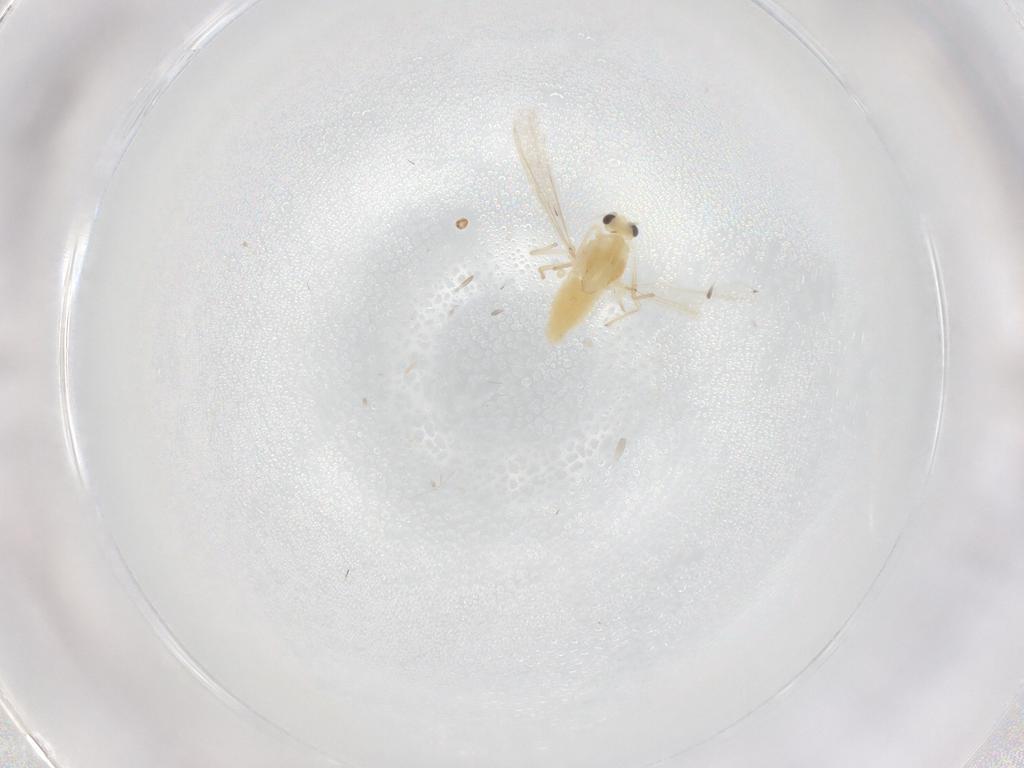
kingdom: Animalia
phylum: Arthropoda
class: Insecta
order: Diptera
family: Chironomidae
